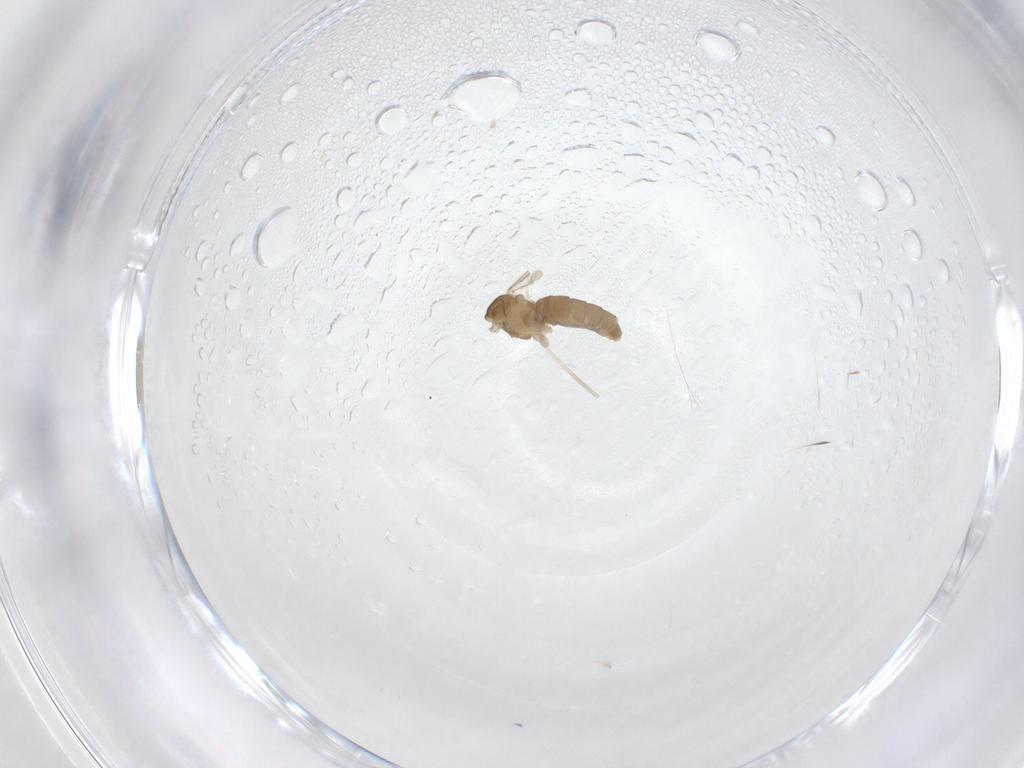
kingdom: Animalia
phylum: Arthropoda
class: Insecta
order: Diptera
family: Cecidomyiidae
